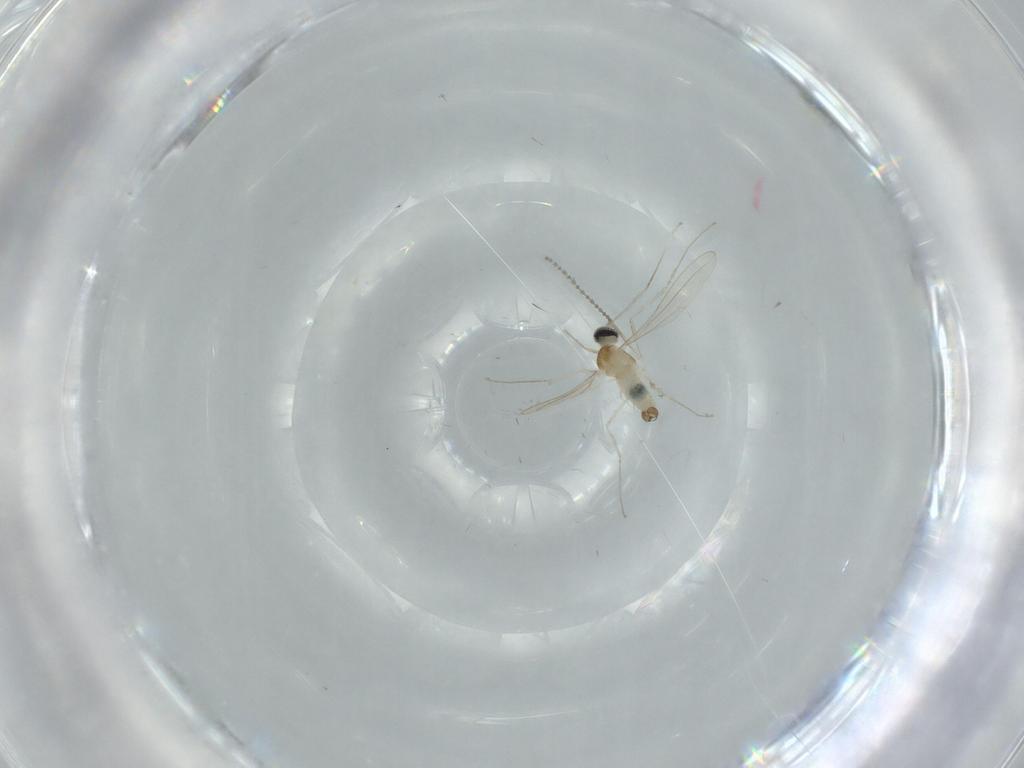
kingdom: Animalia
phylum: Arthropoda
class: Insecta
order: Diptera
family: Cecidomyiidae
